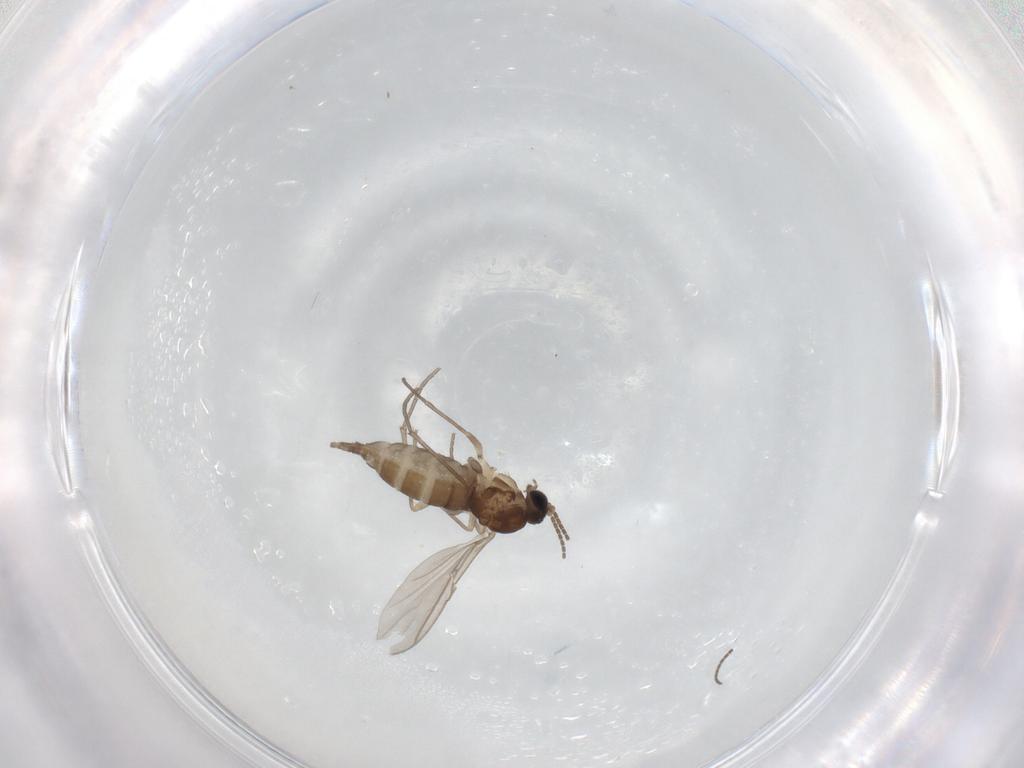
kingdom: Animalia
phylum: Arthropoda
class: Insecta
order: Diptera
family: Sciaridae
